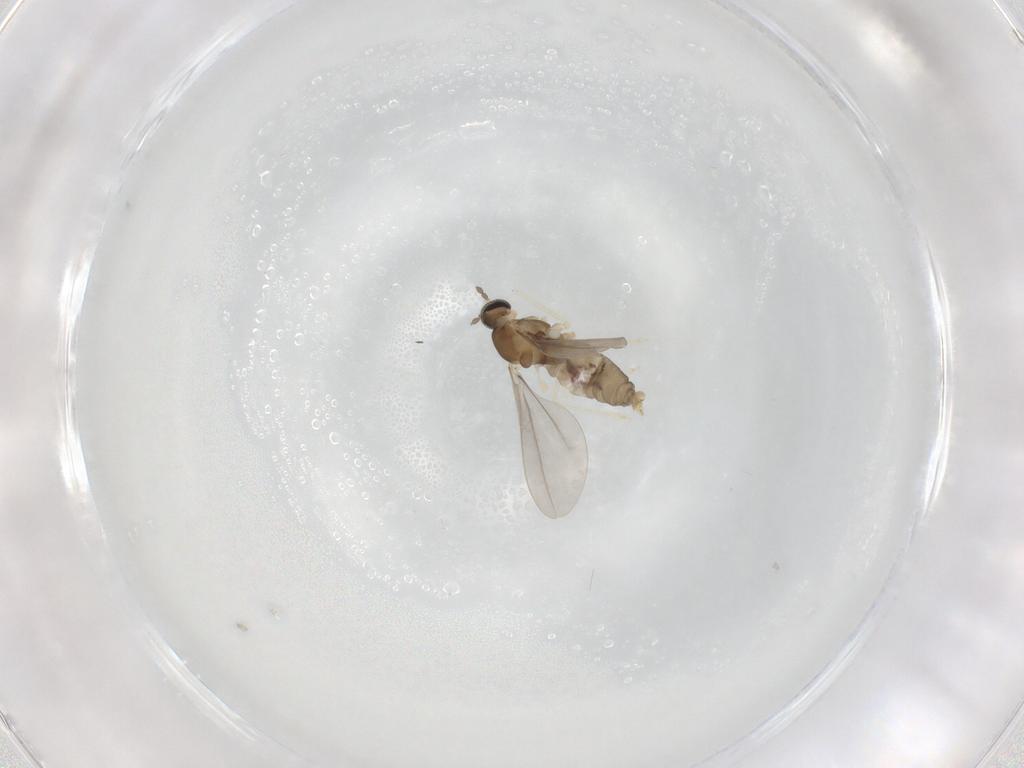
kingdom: Animalia
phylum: Arthropoda
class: Insecta
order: Diptera
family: Cecidomyiidae
